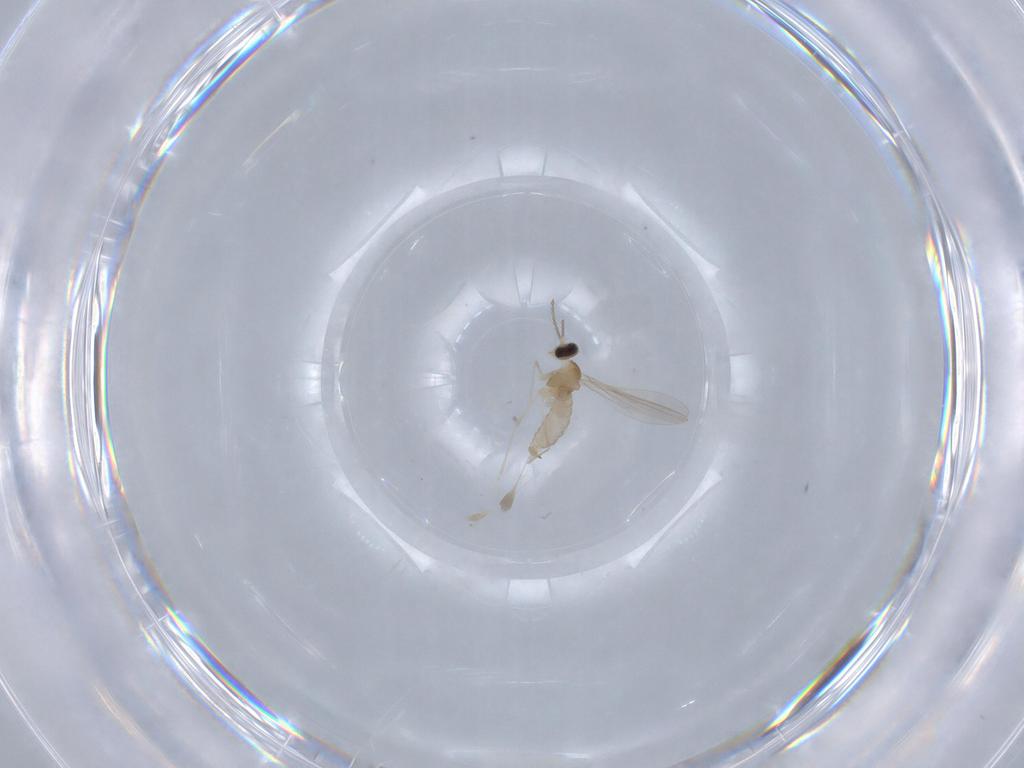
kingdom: Animalia
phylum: Arthropoda
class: Insecta
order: Diptera
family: Cecidomyiidae
